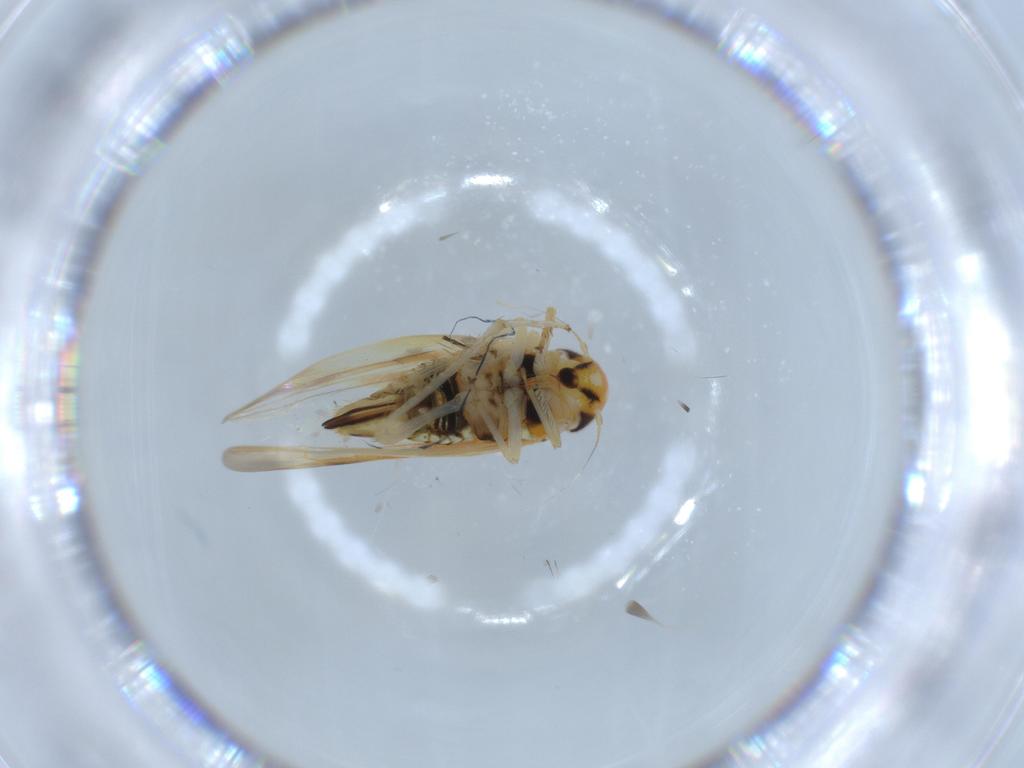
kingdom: Animalia
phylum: Arthropoda
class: Insecta
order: Hemiptera
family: Cicadellidae
